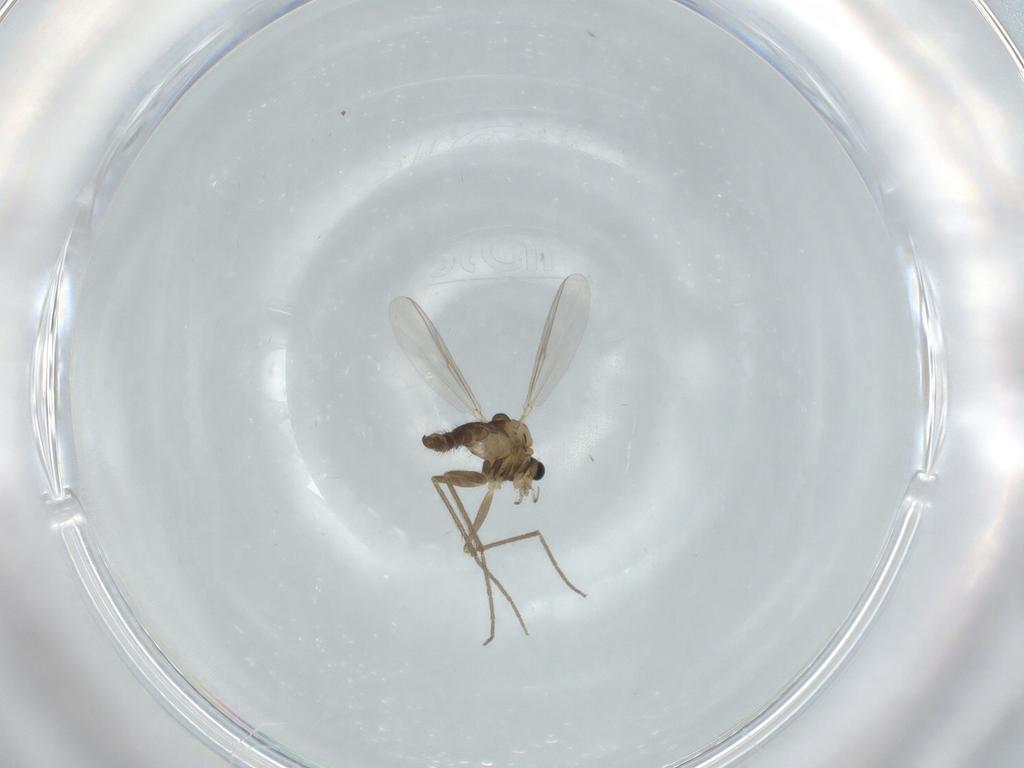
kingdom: Animalia
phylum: Arthropoda
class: Insecta
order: Diptera
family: Chironomidae
